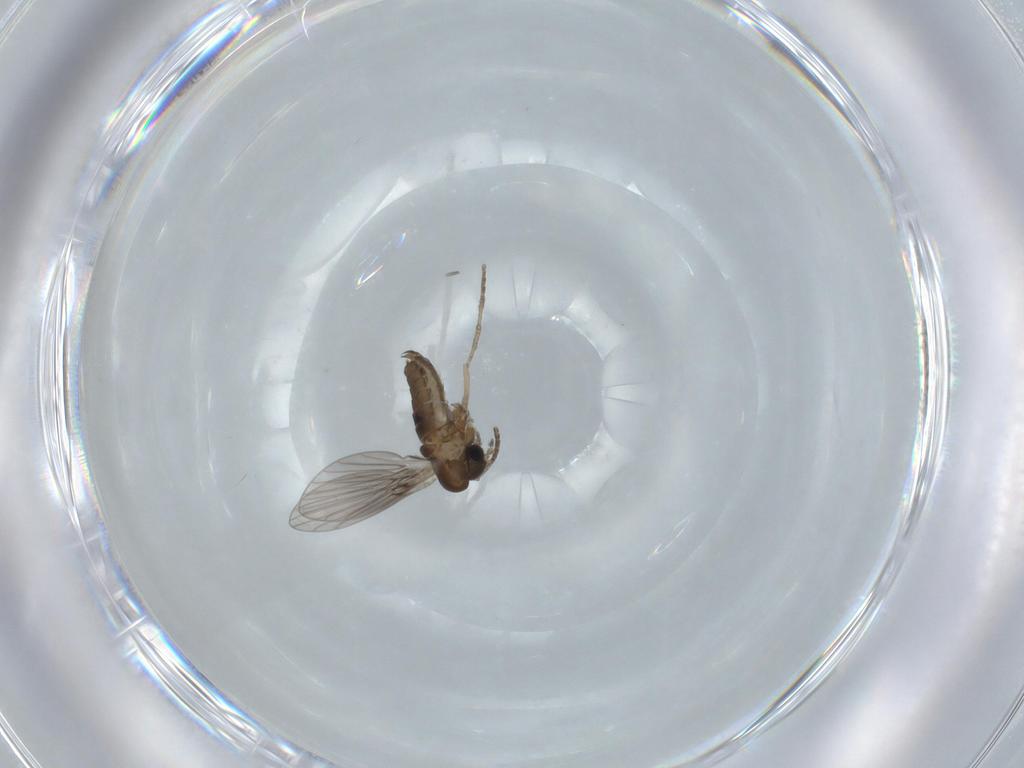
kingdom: Animalia
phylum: Arthropoda
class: Insecta
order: Diptera
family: Psychodidae
